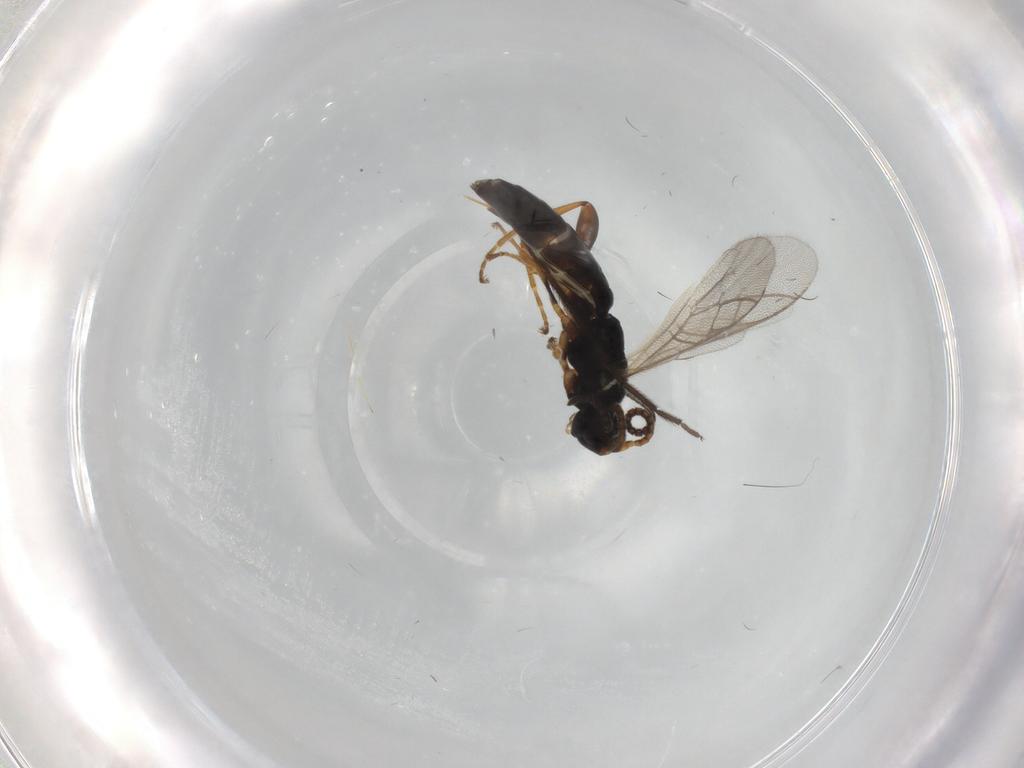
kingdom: Animalia
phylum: Arthropoda
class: Insecta
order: Hymenoptera
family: Ichneumonidae
